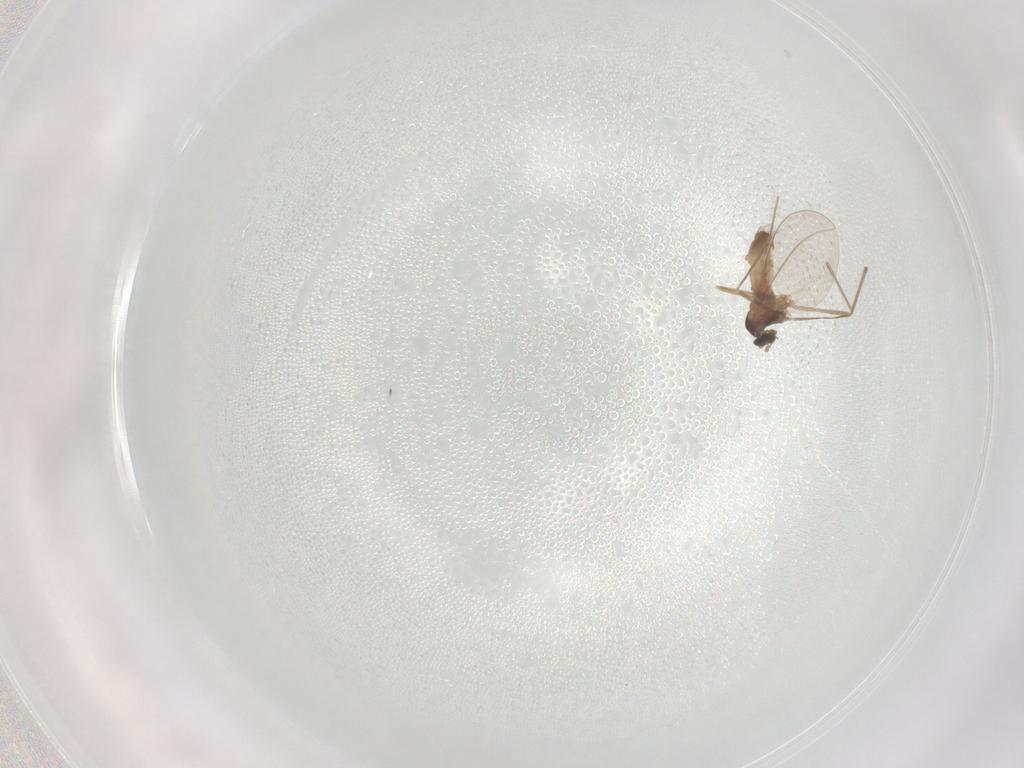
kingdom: Animalia
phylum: Arthropoda
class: Insecta
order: Diptera
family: Cecidomyiidae
